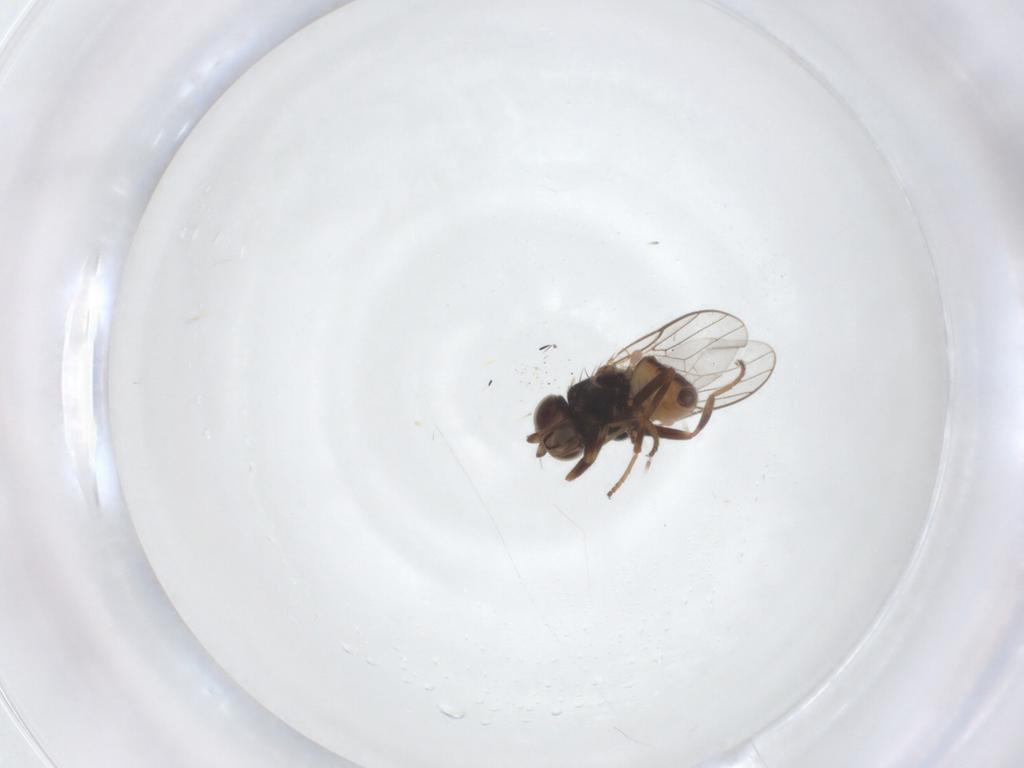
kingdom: Animalia
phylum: Arthropoda
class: Insecta
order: Diptera
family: Chloropidae
